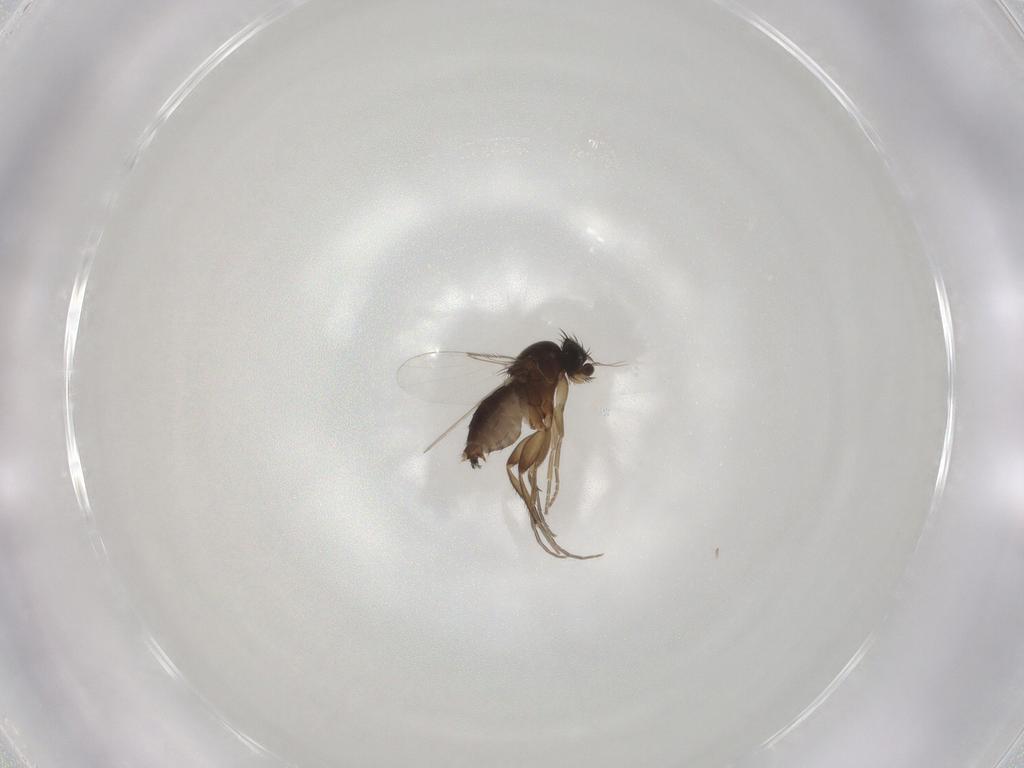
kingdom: Animalia
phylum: Arthropoda
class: Insecta
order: Diptera
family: Phoridae
